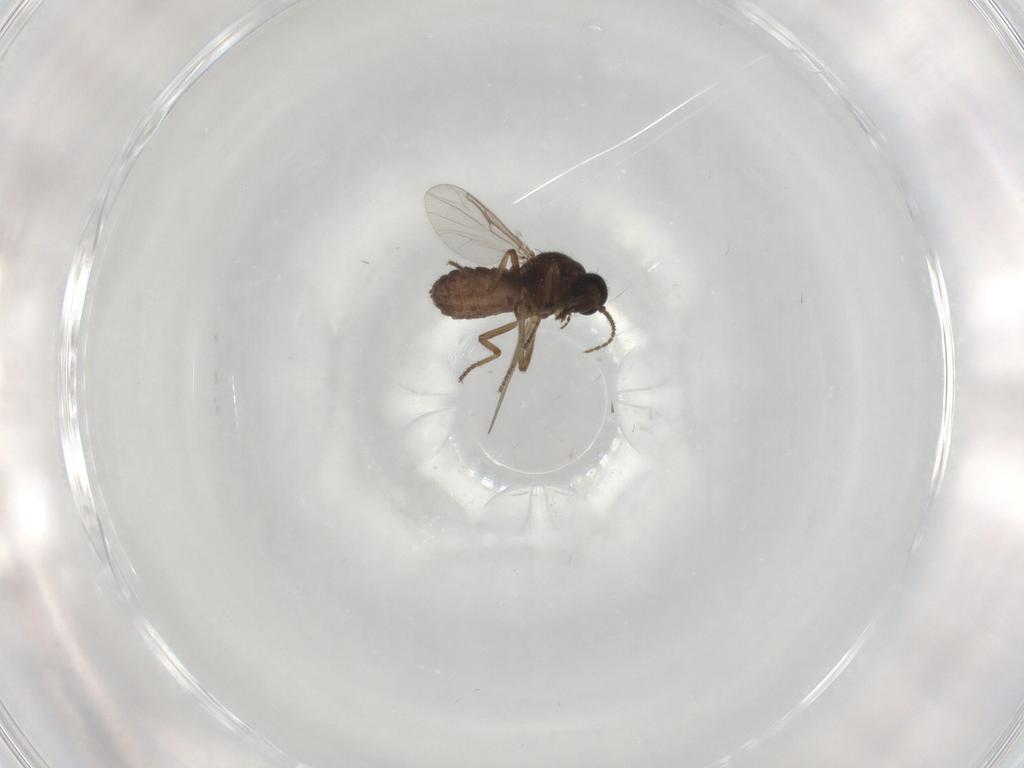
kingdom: Animalia
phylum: Arthropoda
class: Insecta
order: Diptera
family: Ceratopogonidae
